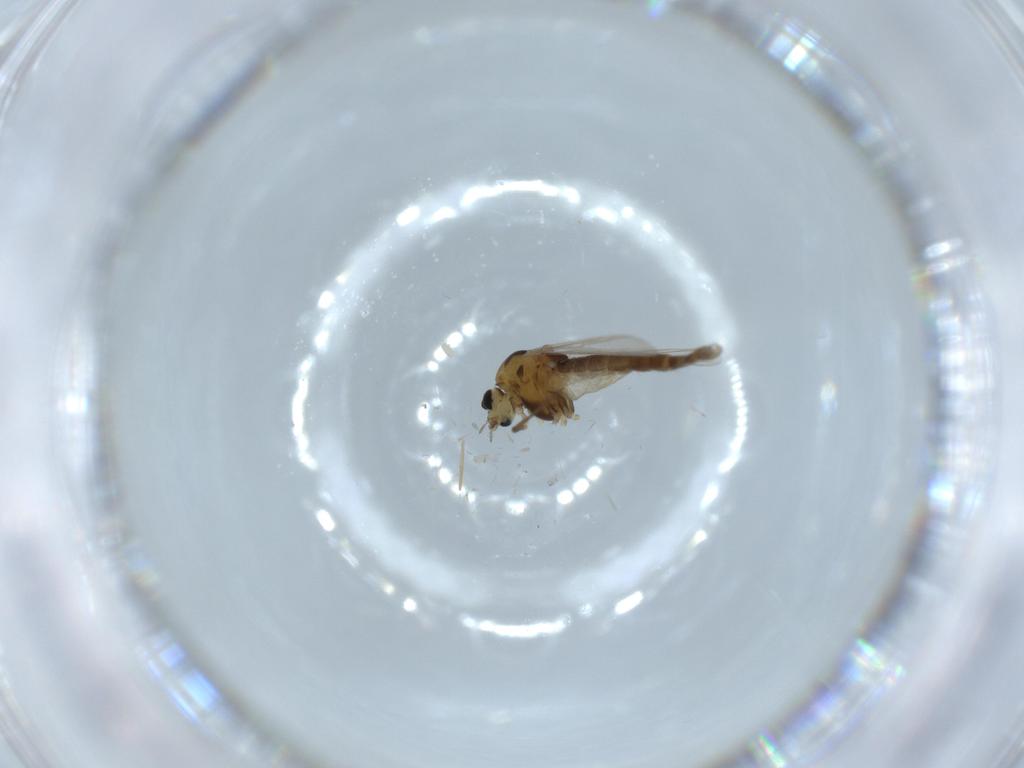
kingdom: Animalia
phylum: Arthropoda
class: Insecta
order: Diptera
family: Chironomidae
